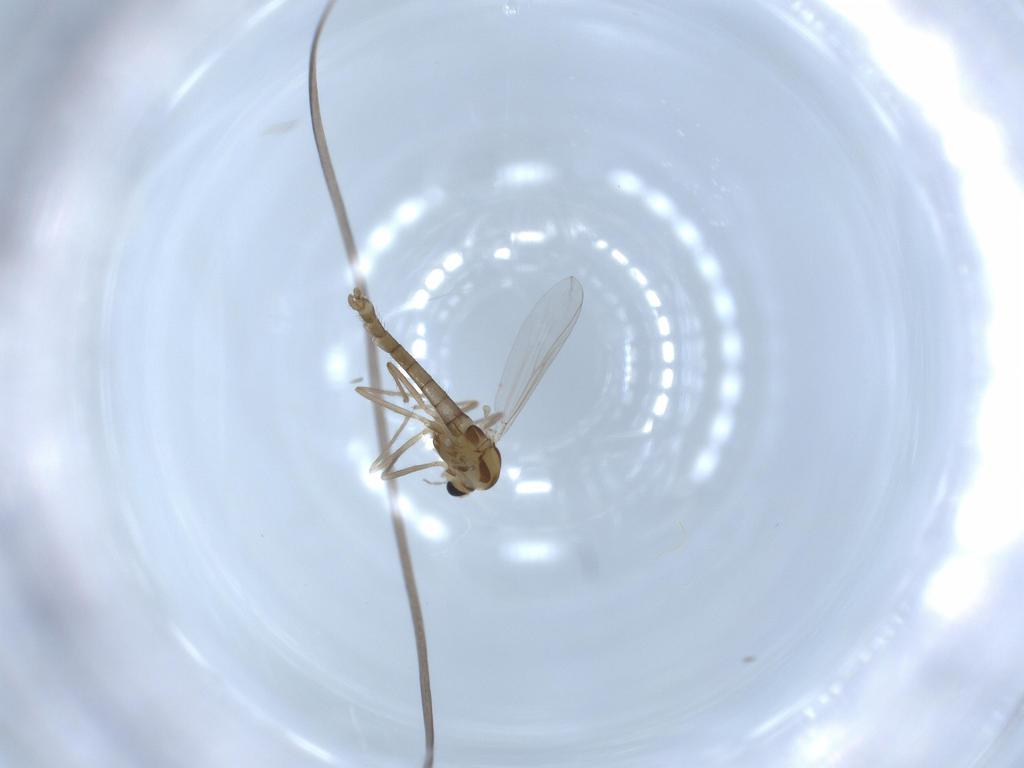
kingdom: Animalia
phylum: Arthropoda
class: Insecta
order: Diptera
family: Chironomidae
